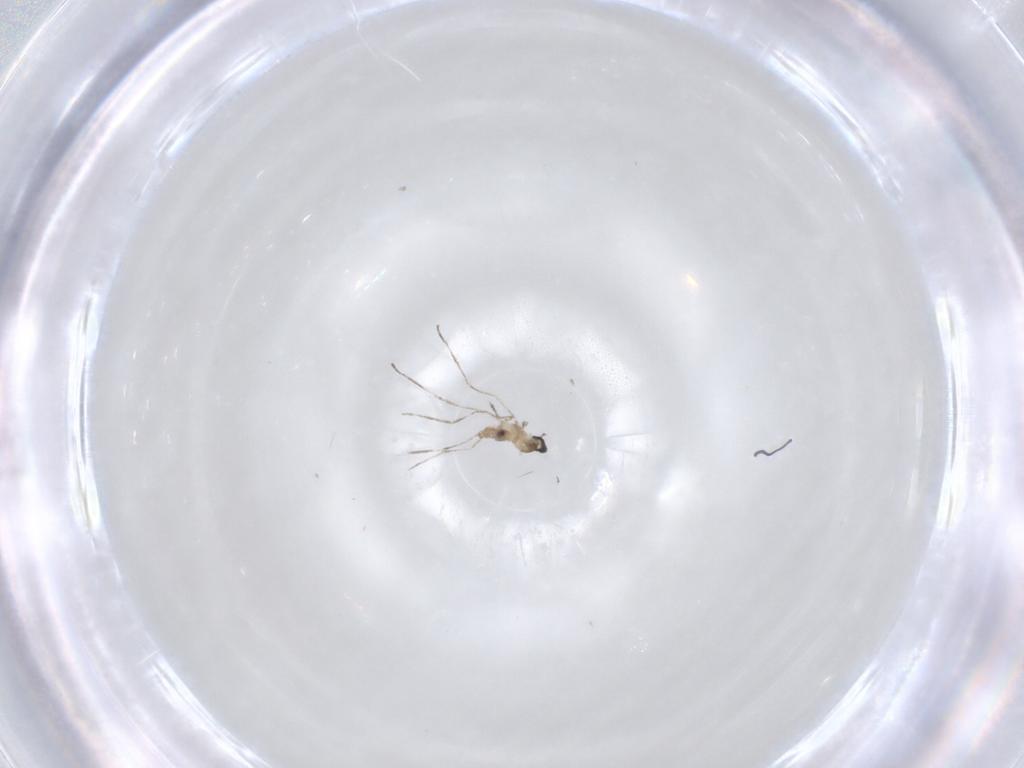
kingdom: Animalia
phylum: Arthropoda
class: Insecta
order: Diptera
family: Cecidomyiidae
